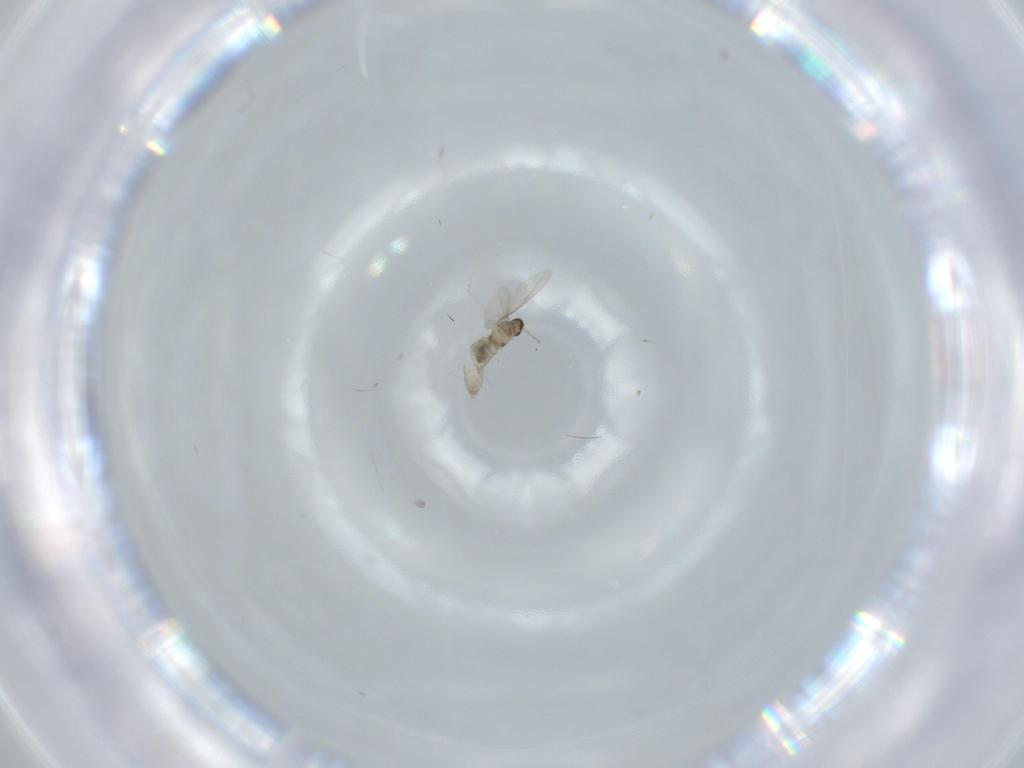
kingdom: Animalia
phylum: Arthropoda
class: Insecta
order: Diptera
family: Cecidomyiidae
